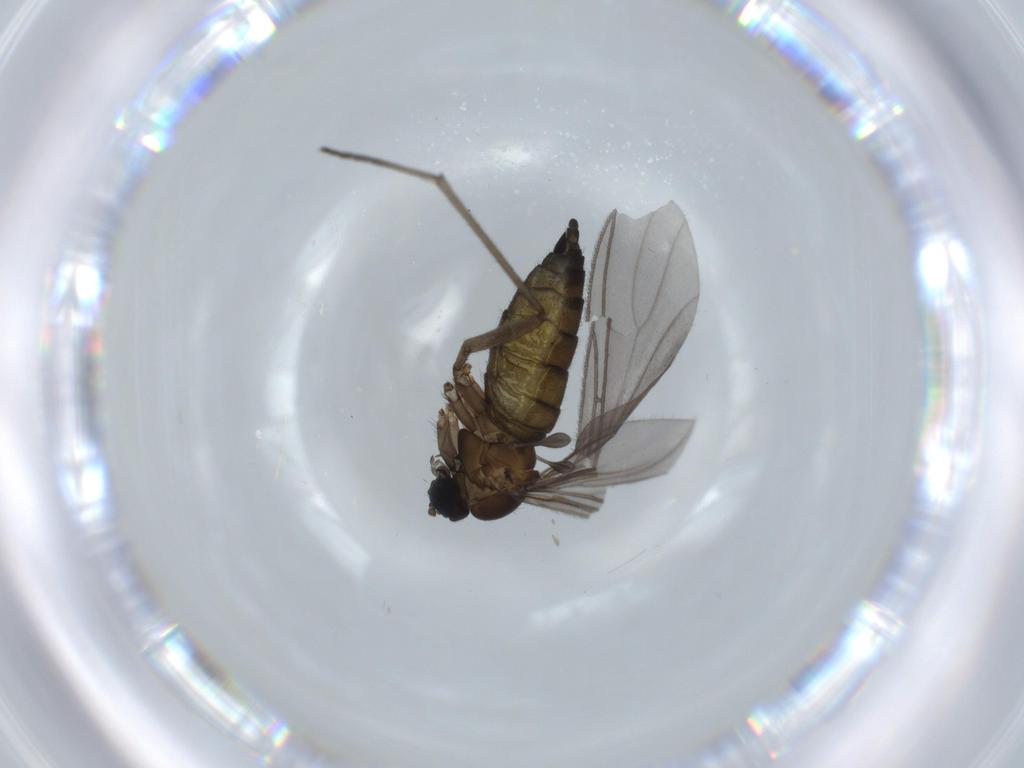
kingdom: Animalia
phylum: Arthropoda
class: Insecta
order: Diptera
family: Sciaridae
